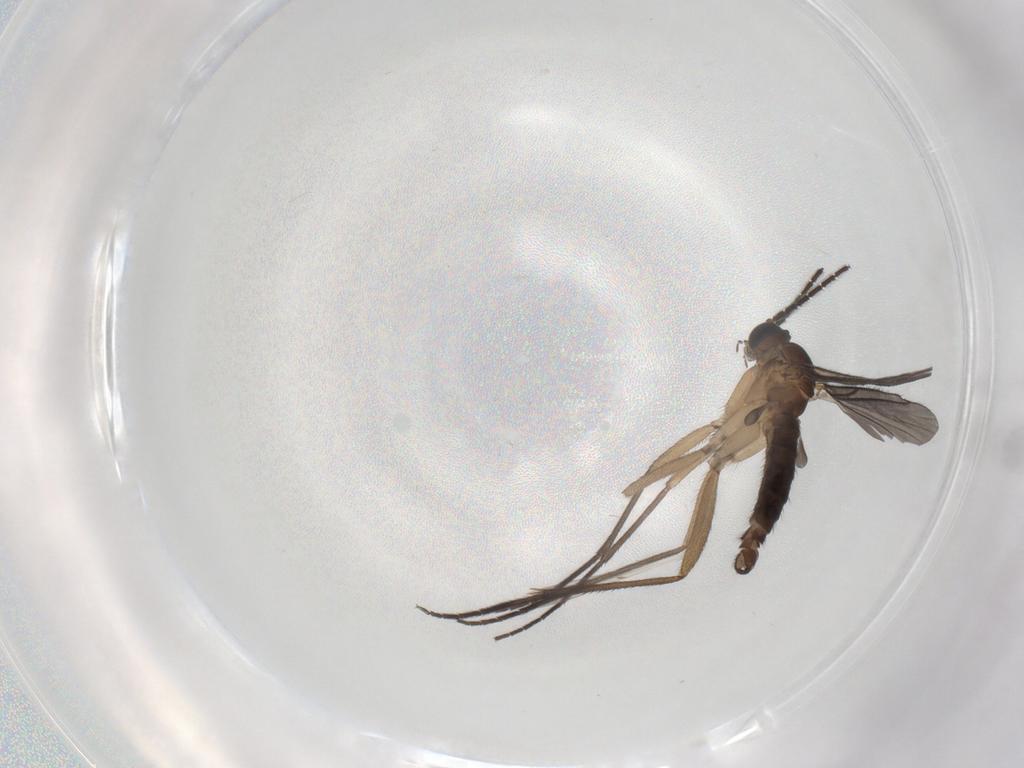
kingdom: Animalia
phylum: Arthropoda
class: Insecta
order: Diptera
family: Sciaridae
